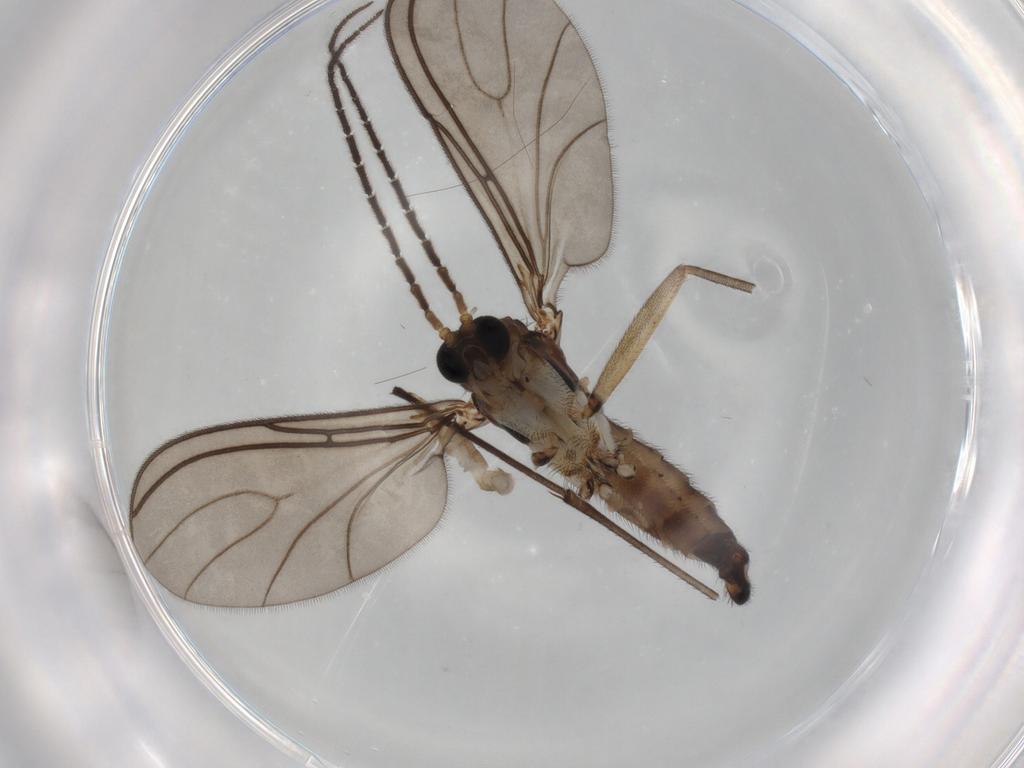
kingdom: Animalia
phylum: Arthropoda
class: Insecta
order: Diptera
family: Sciaridae
